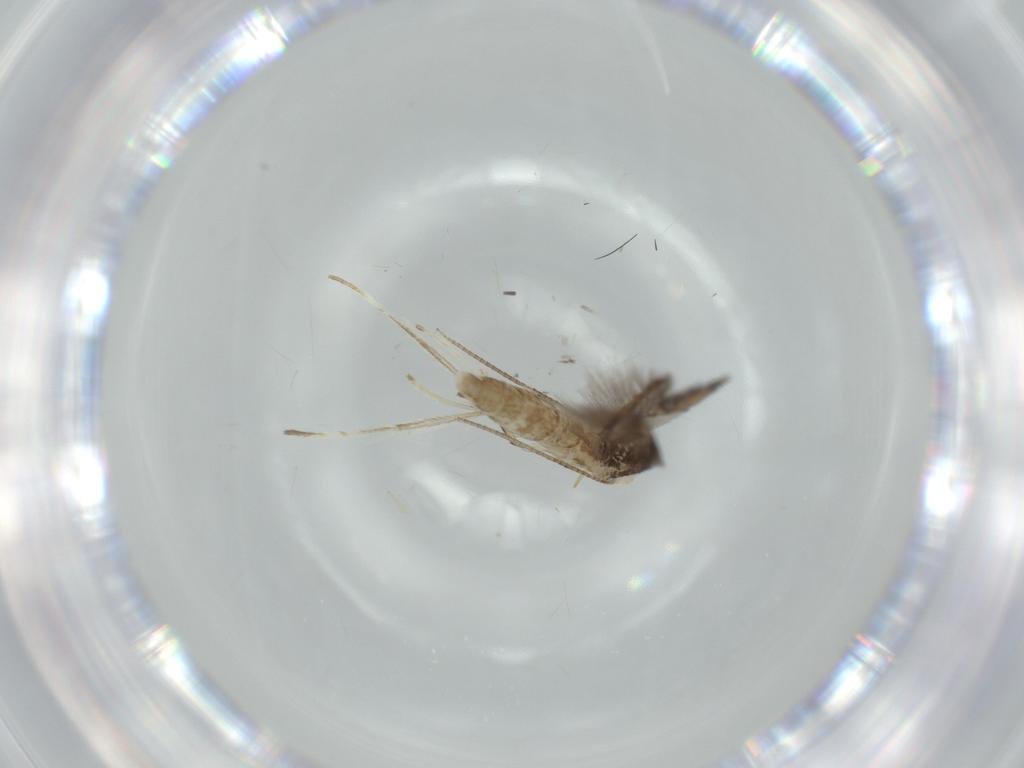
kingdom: Animalia
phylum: Arthropoda
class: Insecta
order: Lepidoptera
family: Gracillariidae
